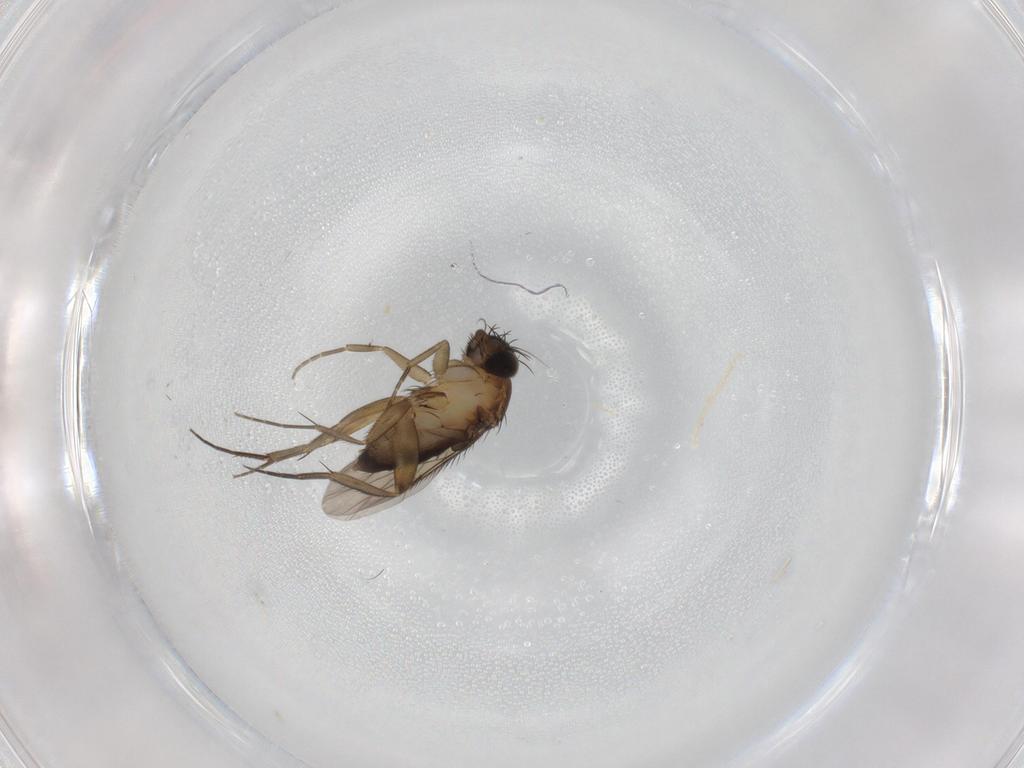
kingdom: Animalia
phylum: Arthropoda
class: Insecta
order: Diptera
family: Phoridae
